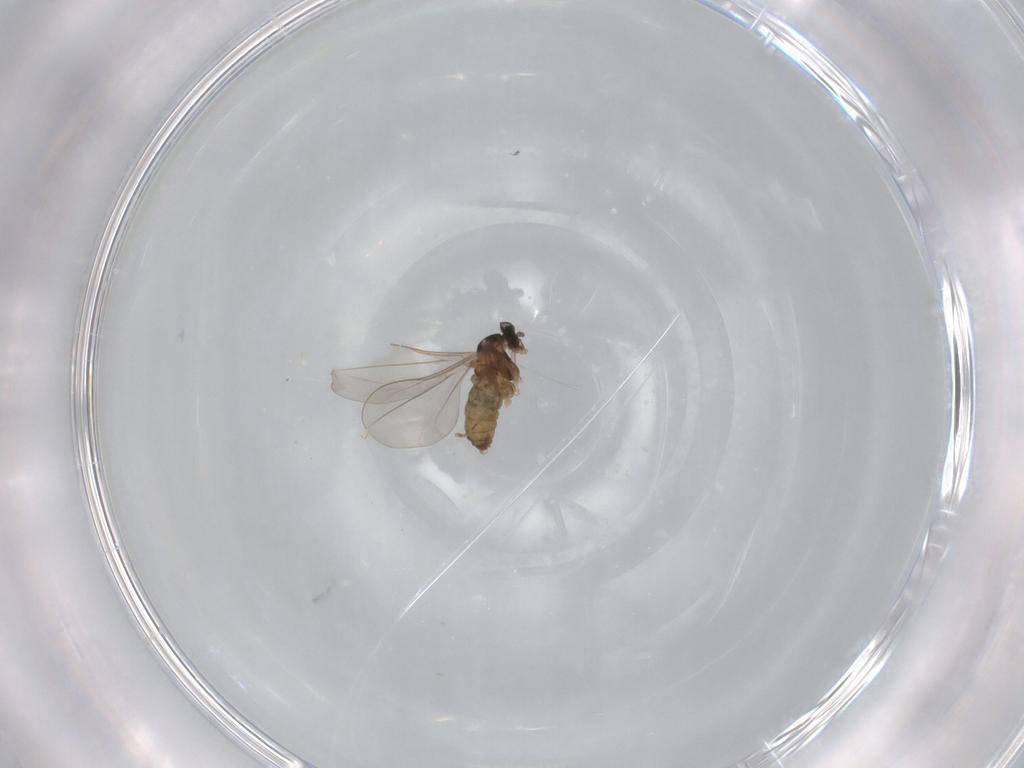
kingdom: Animalia
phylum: Arthropoda
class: Insecta
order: Diptera
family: Cecidomyiidae
